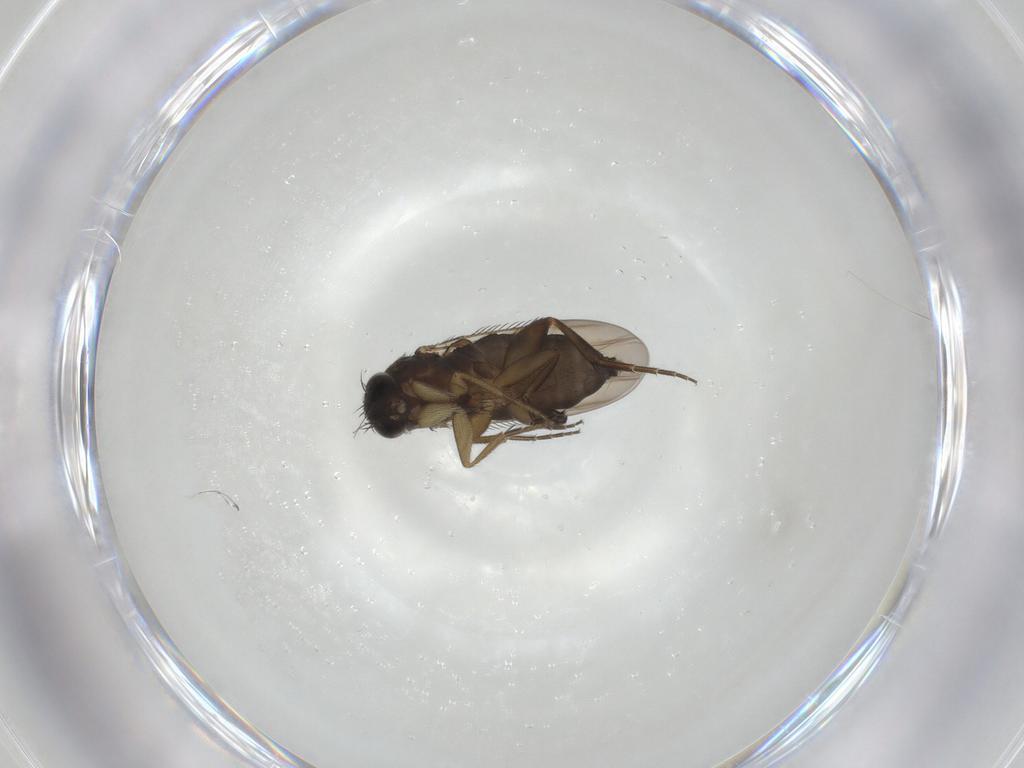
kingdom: Animalia
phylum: Arthropoda
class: Insecta
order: Diptera
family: Phoridae
